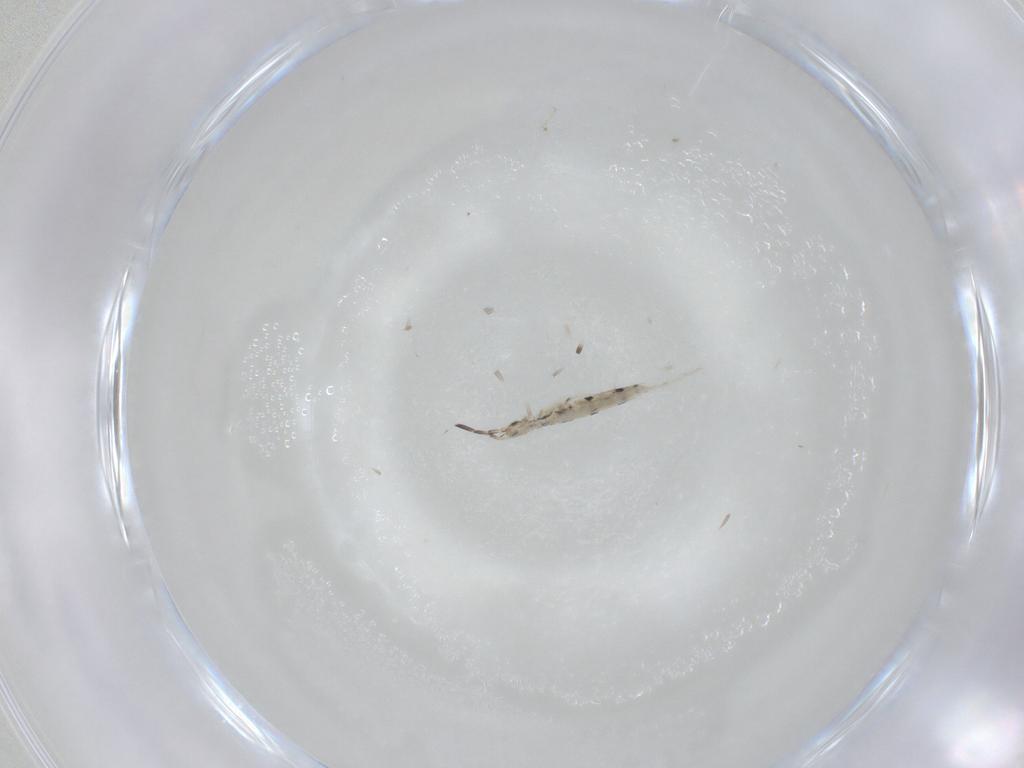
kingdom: Animalia
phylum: Arthropoda
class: Collembola
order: Entomobryomorpha
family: Entomobryidae
